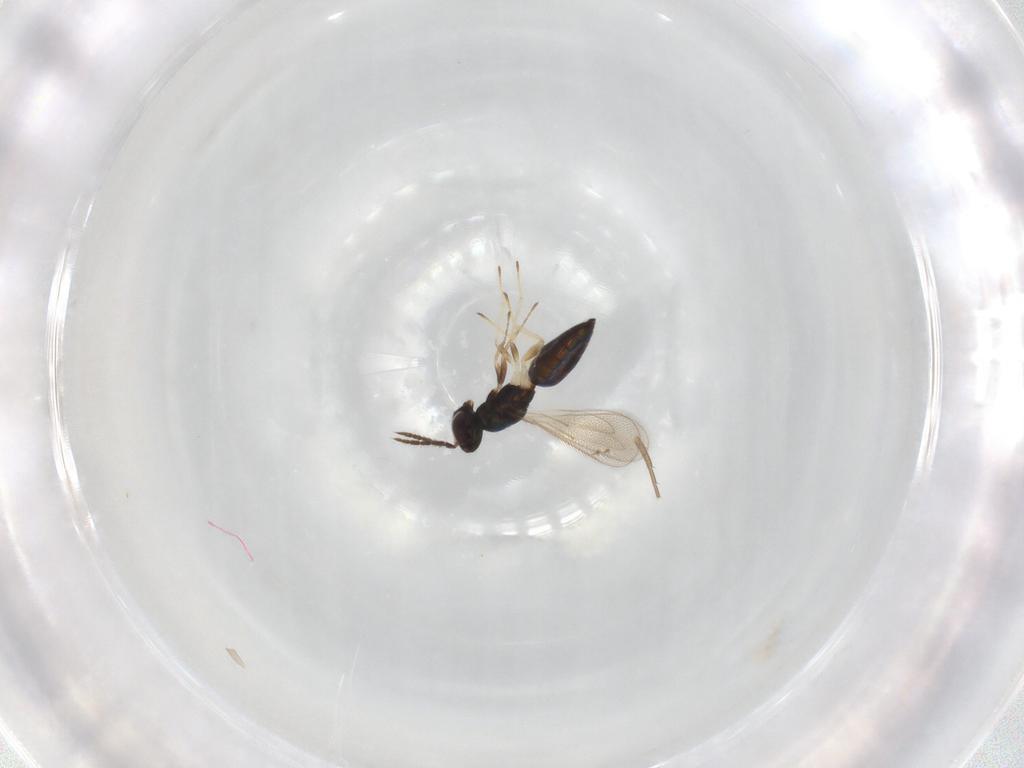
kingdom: Animalia
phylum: Arthropoda
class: Insecta
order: Hymenoptera
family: Eulophidae
